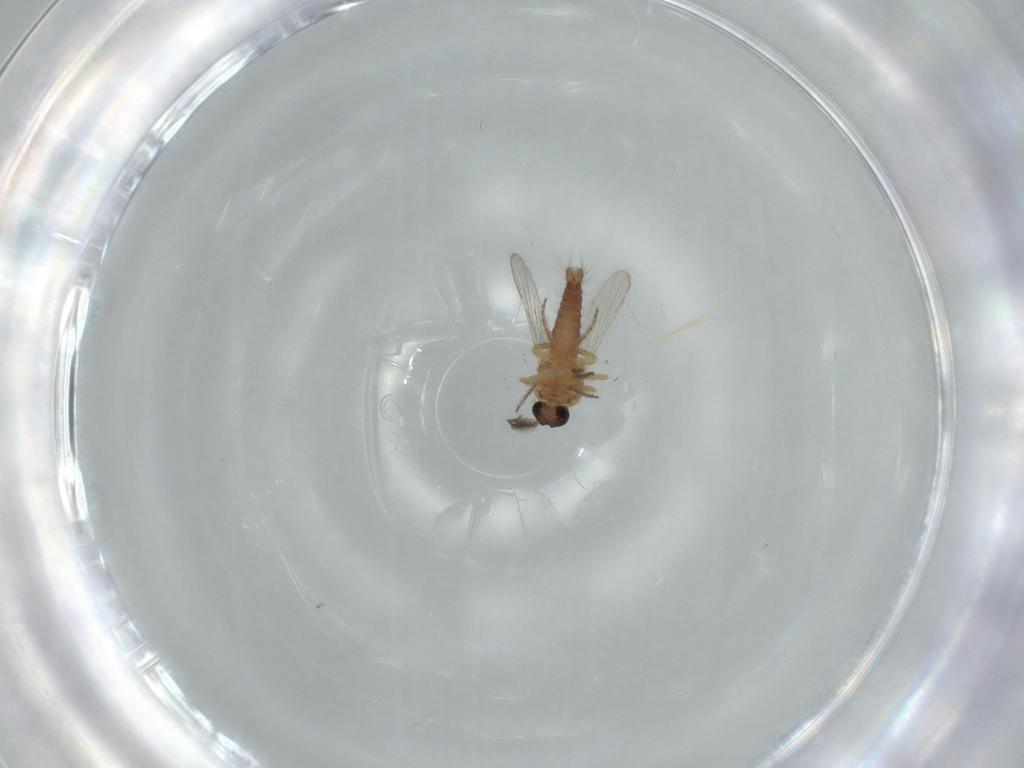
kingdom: Animalia
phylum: Arthropoda
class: Insecta
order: Diptera
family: Ceratopogonidae
